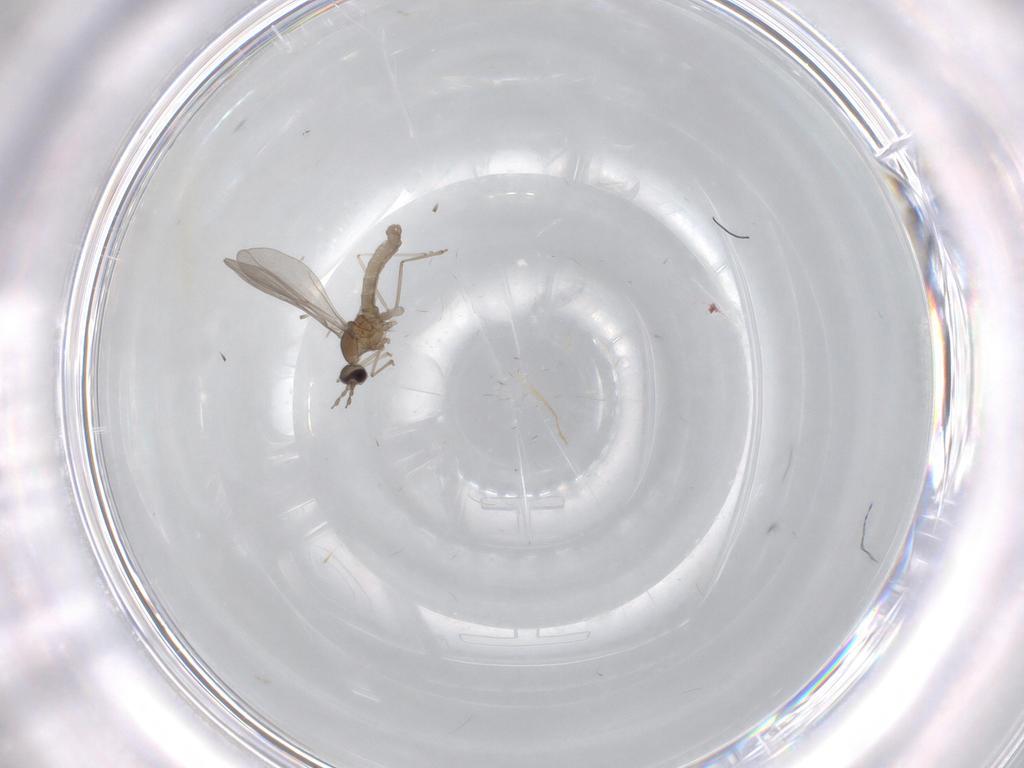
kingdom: Animalia
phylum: Arthropoda
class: Insecta
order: Diptera
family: Limoniidae
